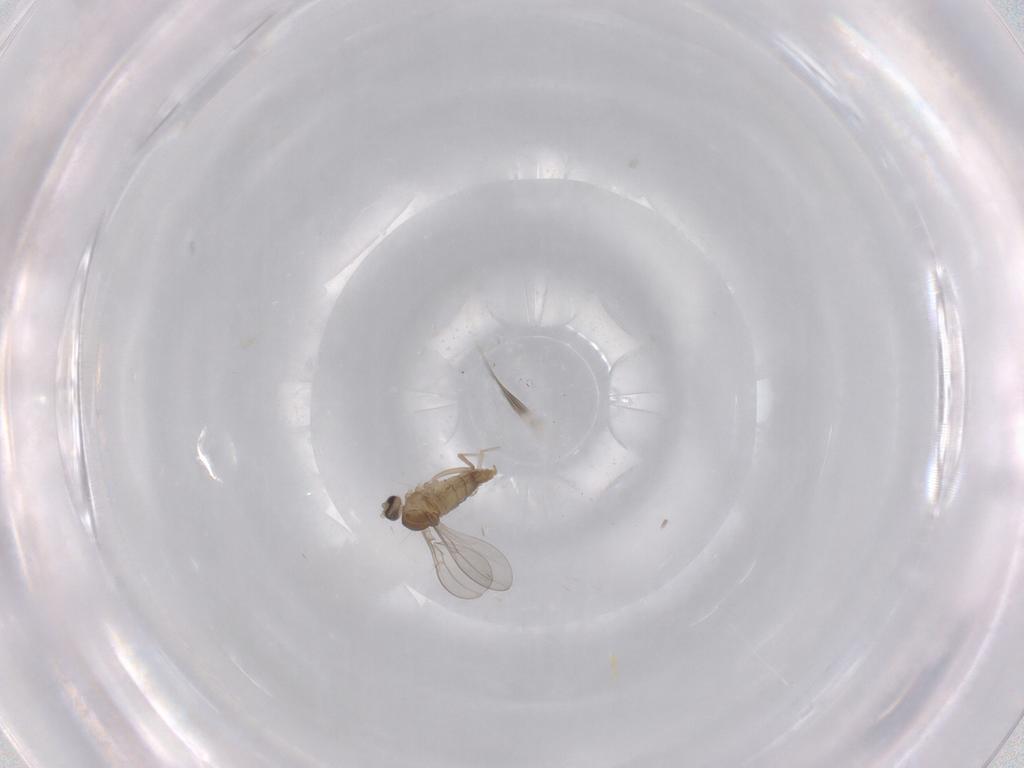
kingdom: Animalia
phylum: Arthropoda
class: Insecta
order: Diptera
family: Cecidomyiidae
